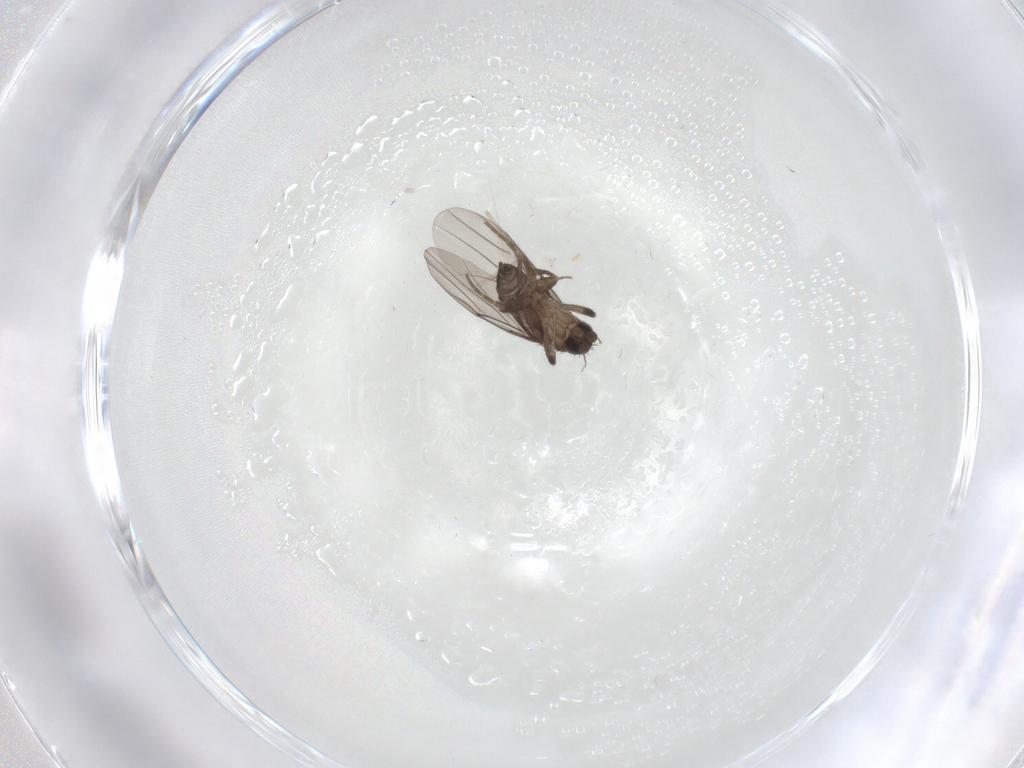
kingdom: Animalia
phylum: Arthropoda
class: Insecta
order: Diptera
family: Cecidomyiidae
